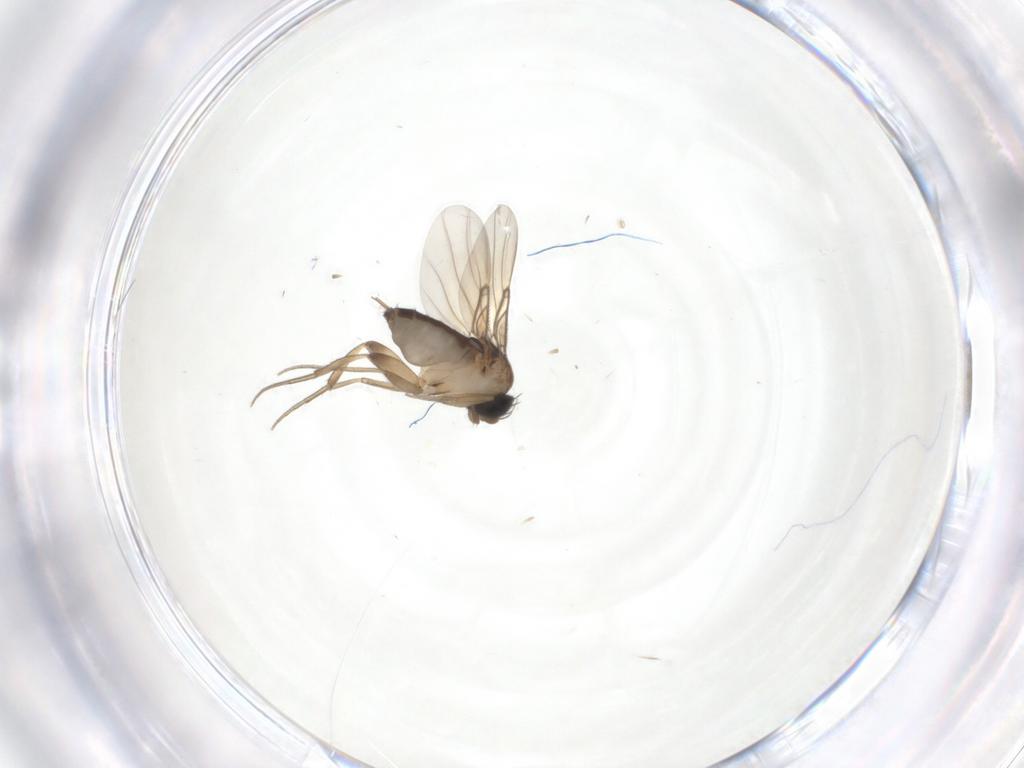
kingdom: Animalia
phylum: Arthropoda
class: Insecta
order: Diptera
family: Phoridae
